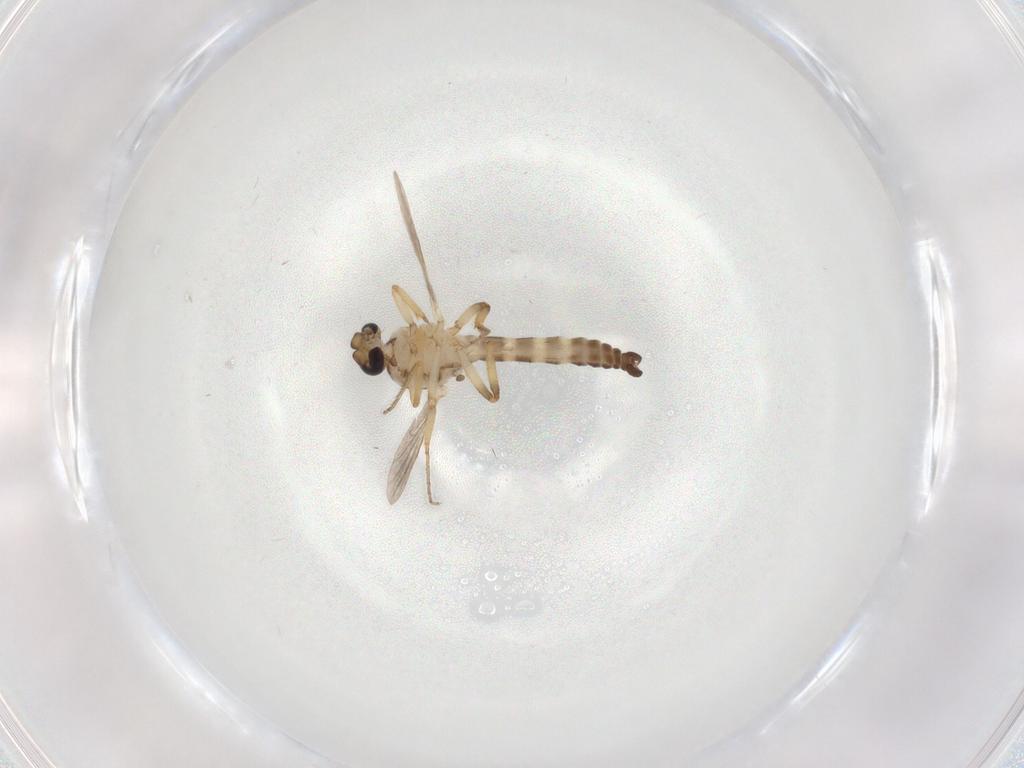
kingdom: Animalia
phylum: Arthropoda
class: Insecta
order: Diptera
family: Ceratopogonidae
